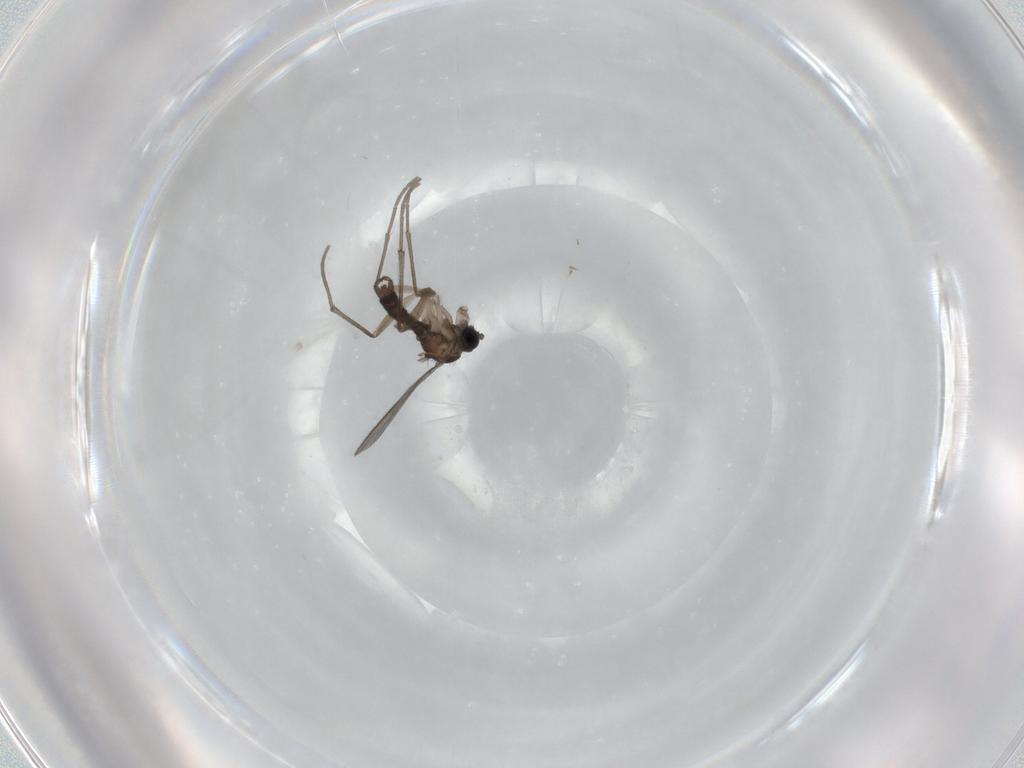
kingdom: Animalia
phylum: Arthropoda
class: Insecta
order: Diptera
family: Sciaridae
